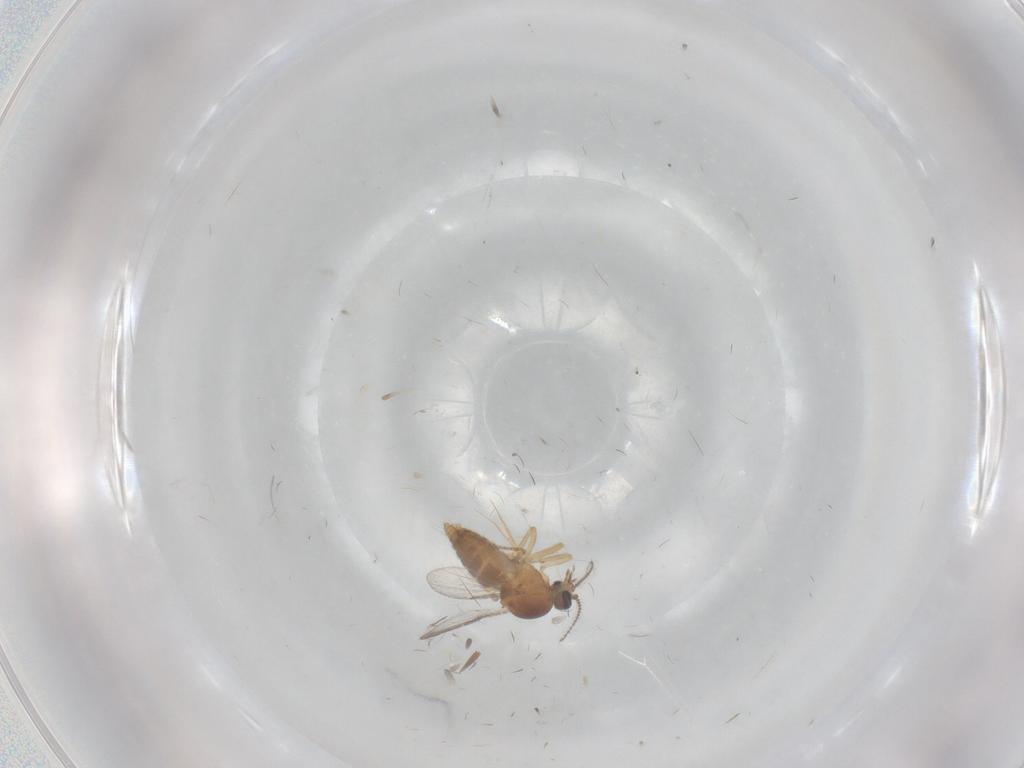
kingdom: Animalia
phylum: Arthropoda
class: Insecta
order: Diptera
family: Ceratopogonidae
